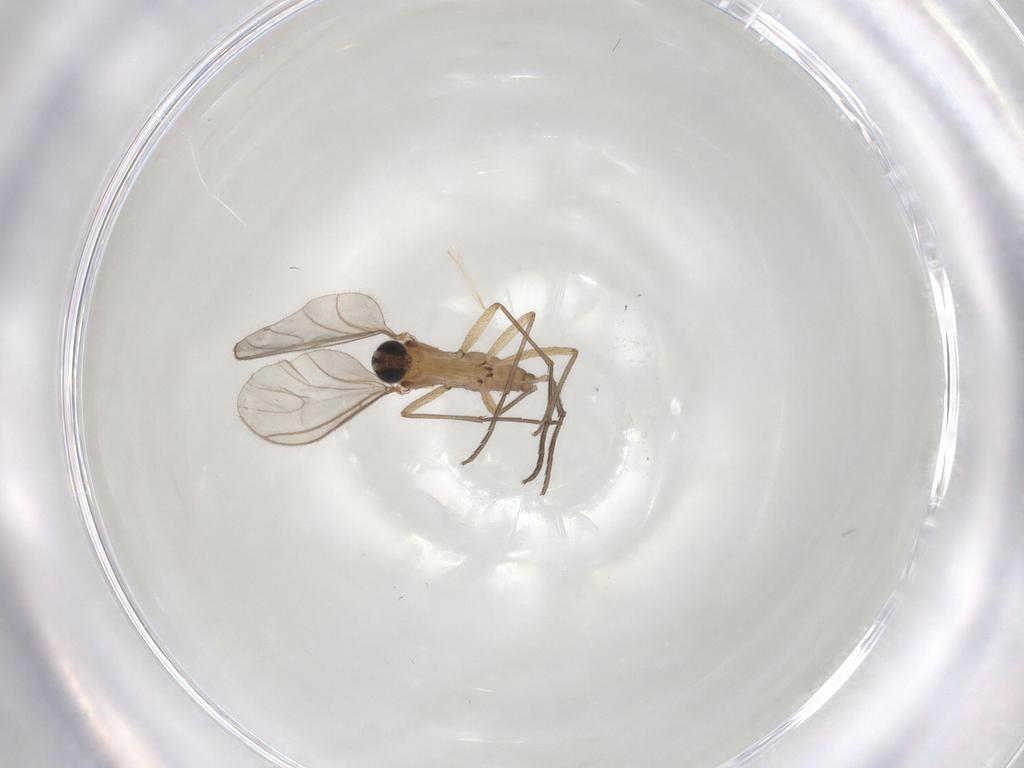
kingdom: Animalia
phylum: Arthropoda
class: Insecta
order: Diptera
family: Sciaridae
